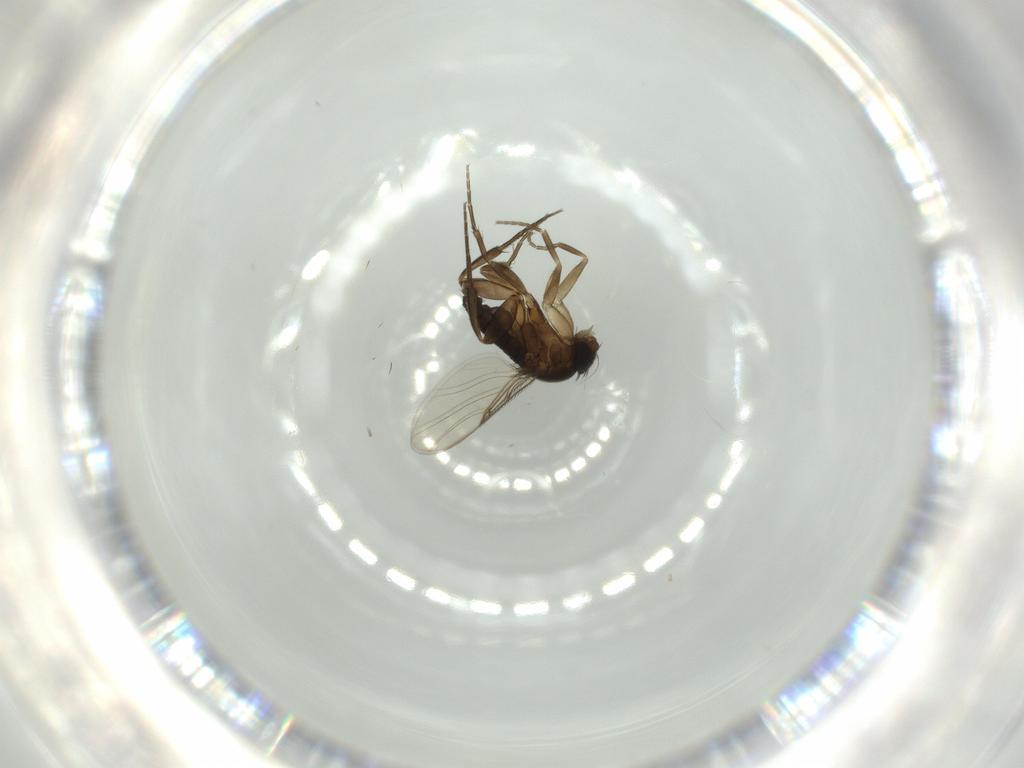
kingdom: Animalia
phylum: Arthropoda
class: Insecta
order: Diptera
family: Phoridae
